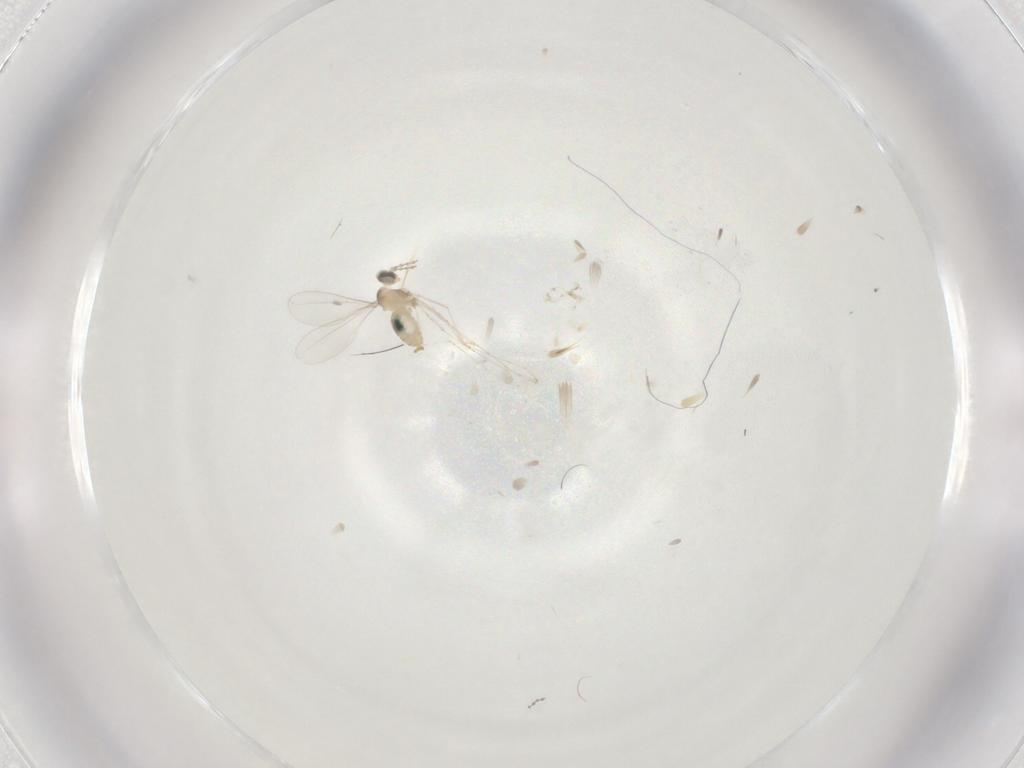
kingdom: Animalia
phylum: Arthropoda
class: Insecta
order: Diptera
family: Cecidomyiidae
